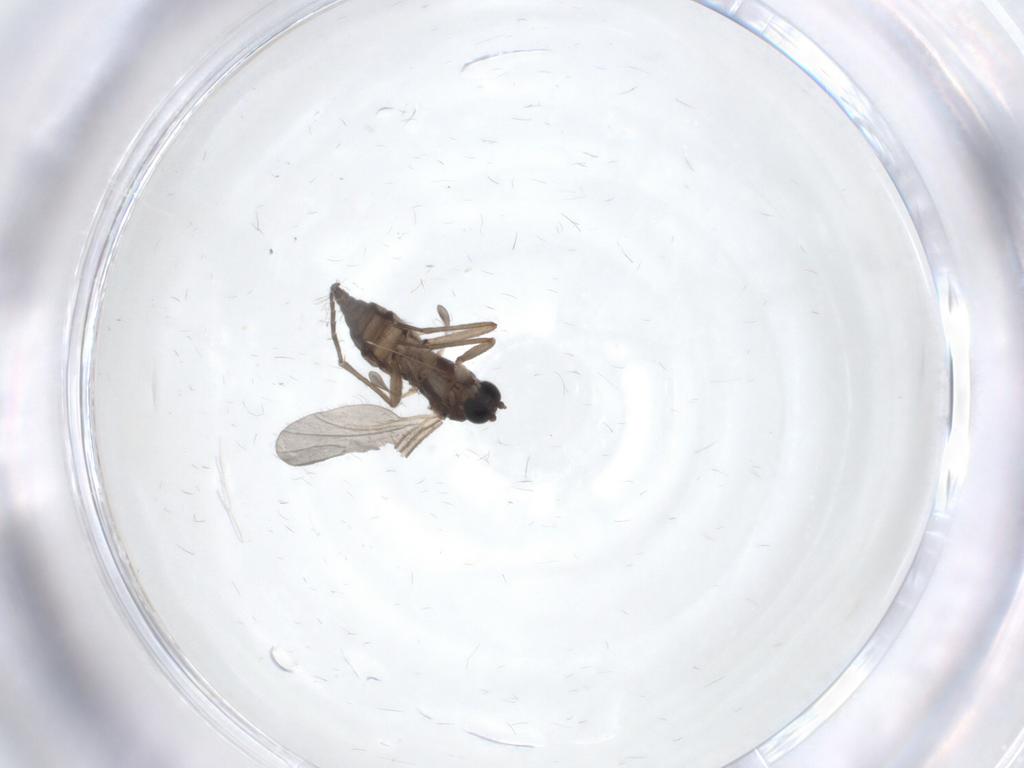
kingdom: Animalia
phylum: Arthropoda
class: Insecta
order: Diptera
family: Sciaridae
